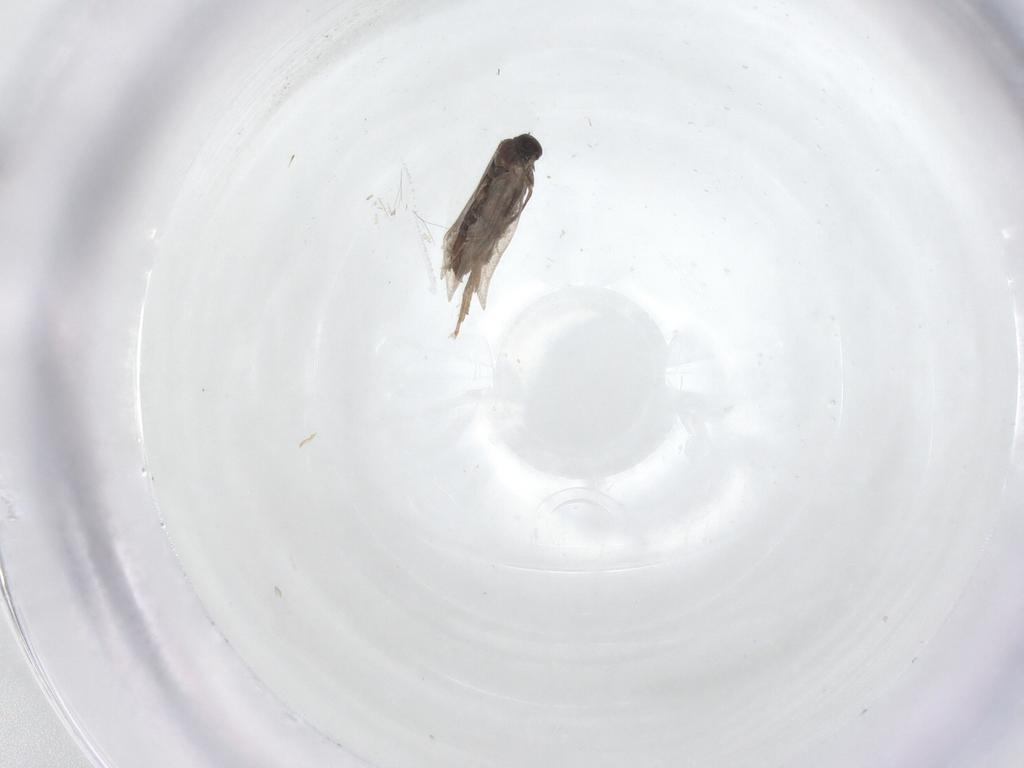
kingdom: Animalia
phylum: Arthropoda
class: Insecta
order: Lepidoptera
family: Heliozelidae
